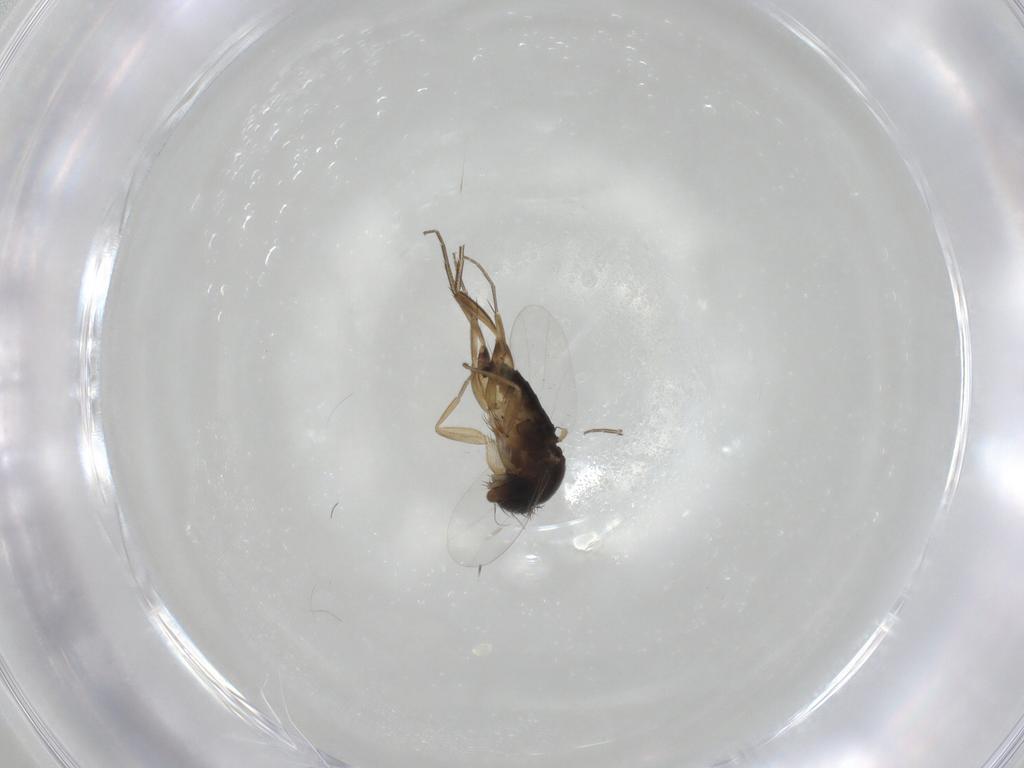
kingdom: Animalia
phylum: Arthropoda
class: Insecta
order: Diptera
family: Phoridae
